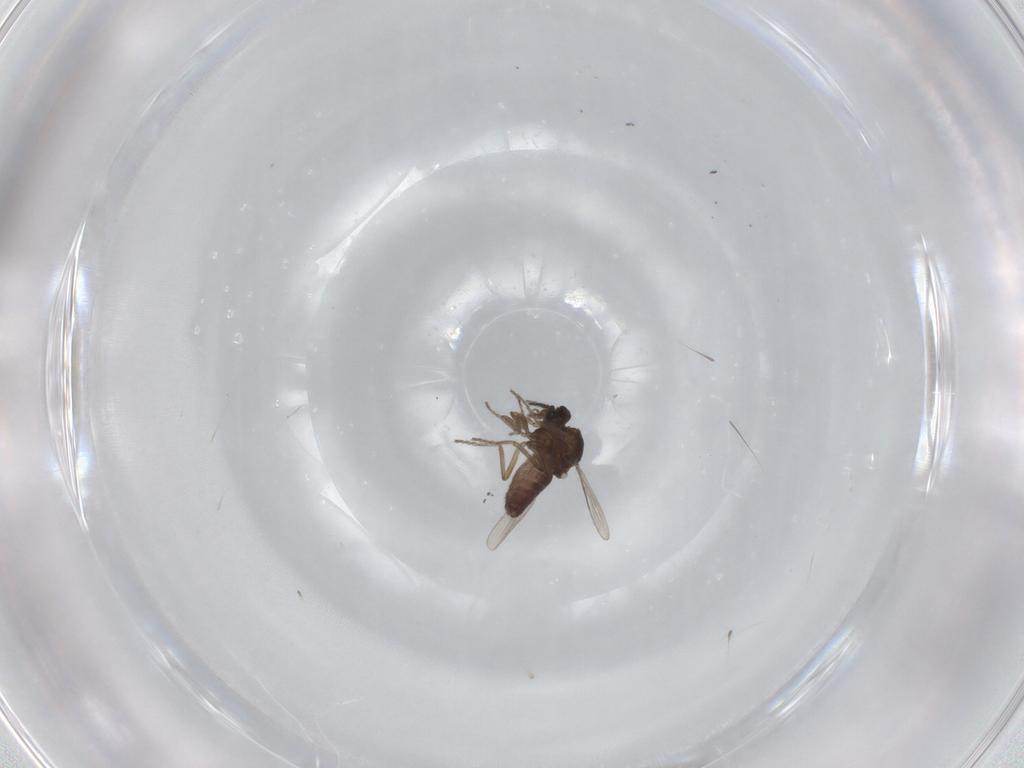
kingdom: Animalia
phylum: Arthropoda
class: Insecta
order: Diptera
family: Ceratopogonidae
